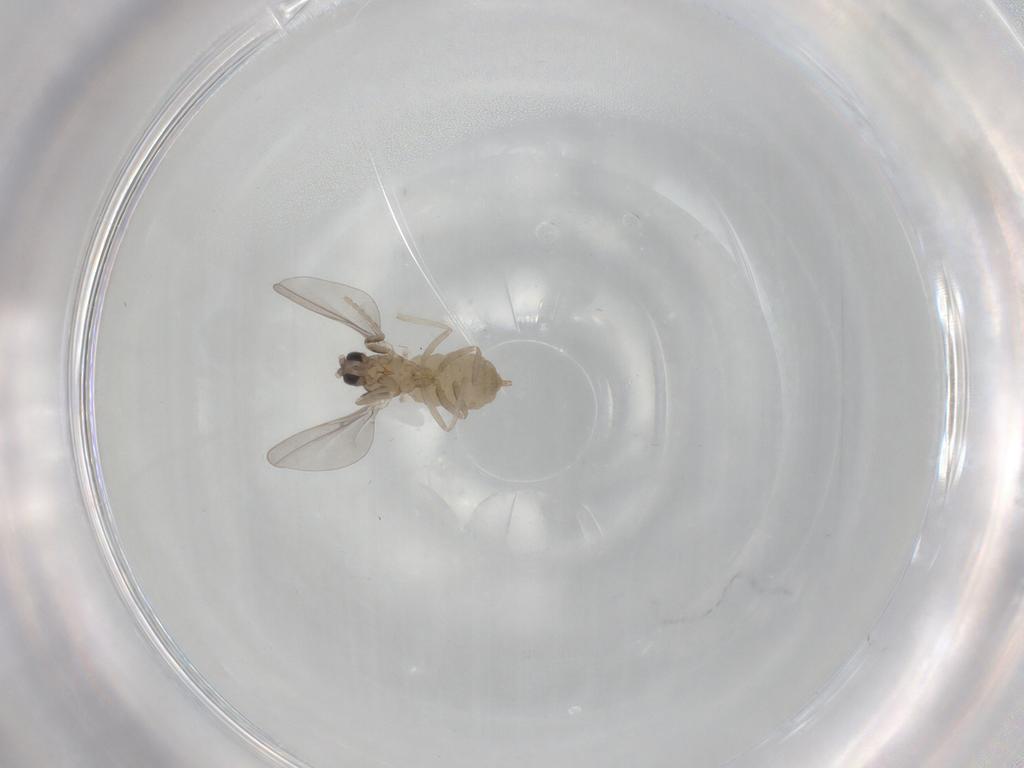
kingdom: Animalia
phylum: Arthropoda
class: Insecta
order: Diptera
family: Cecidomyiidae
